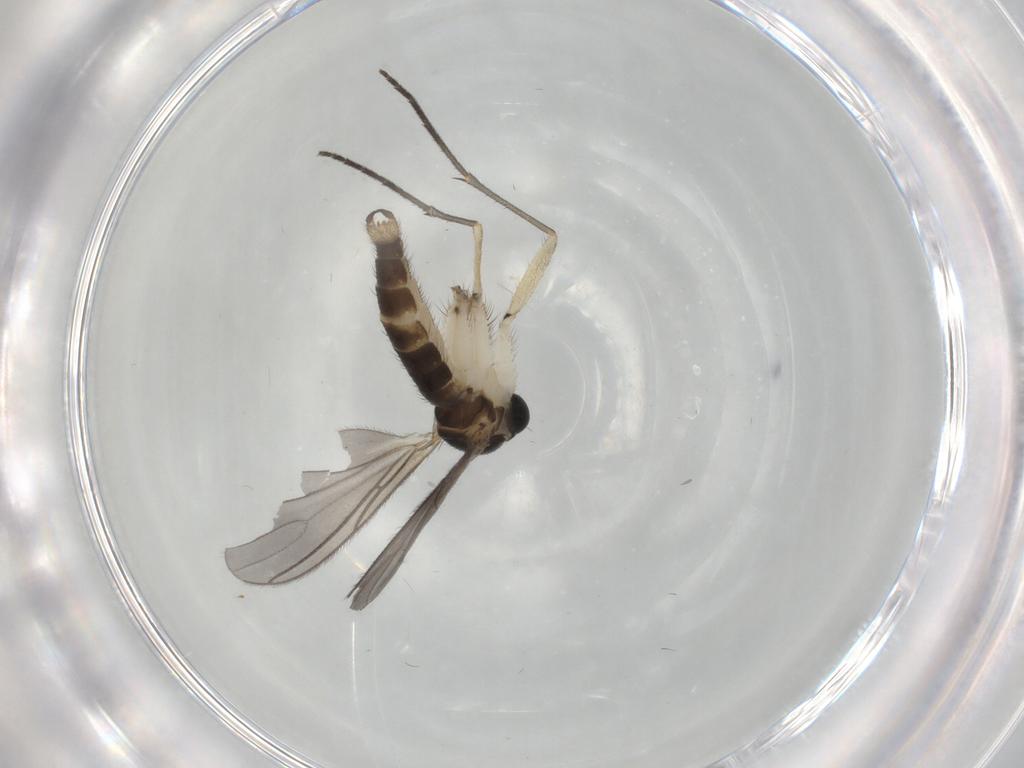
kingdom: Animalia
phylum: Arthropoda
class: Insecta
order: Diptera
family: Sciaridae
